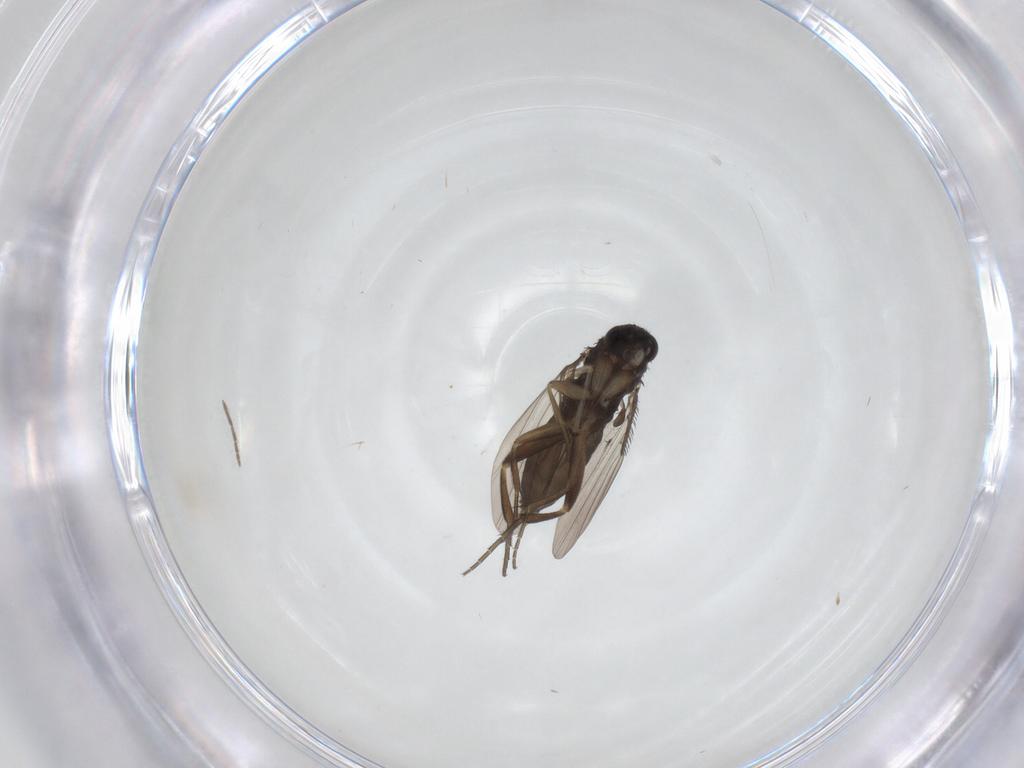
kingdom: Animalia
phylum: Arthropoda
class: Insecta
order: Diptera
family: Phoridae
